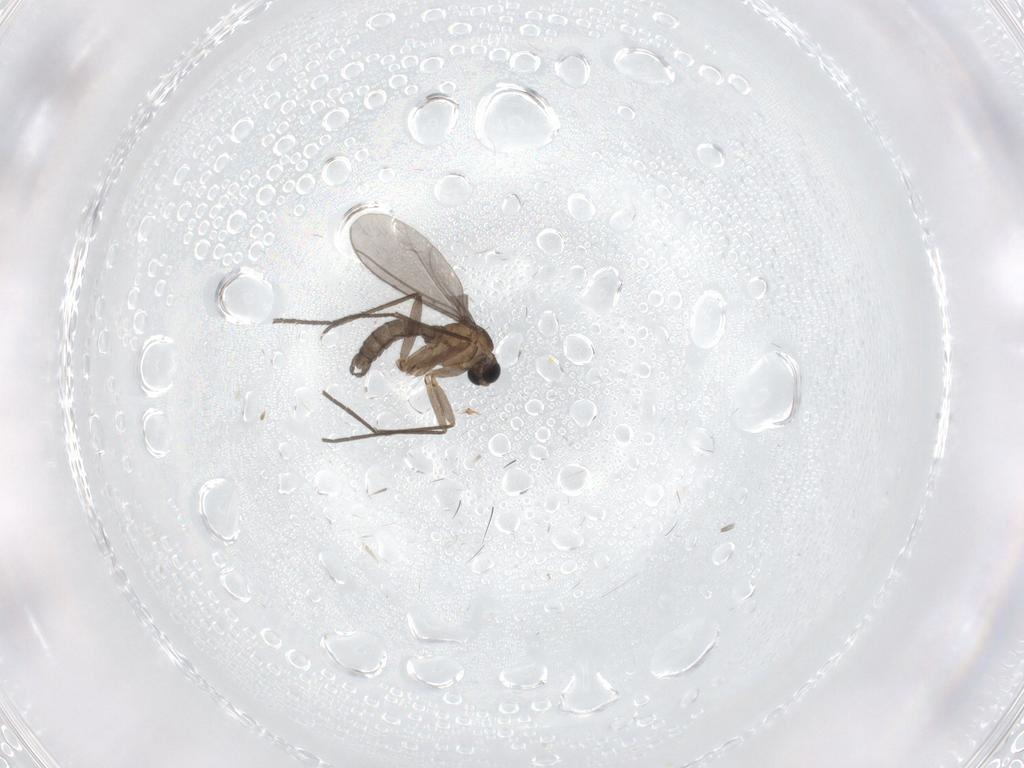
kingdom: Animalia
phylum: Arthropoda
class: Insecta
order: Diptera
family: Sciaridae
